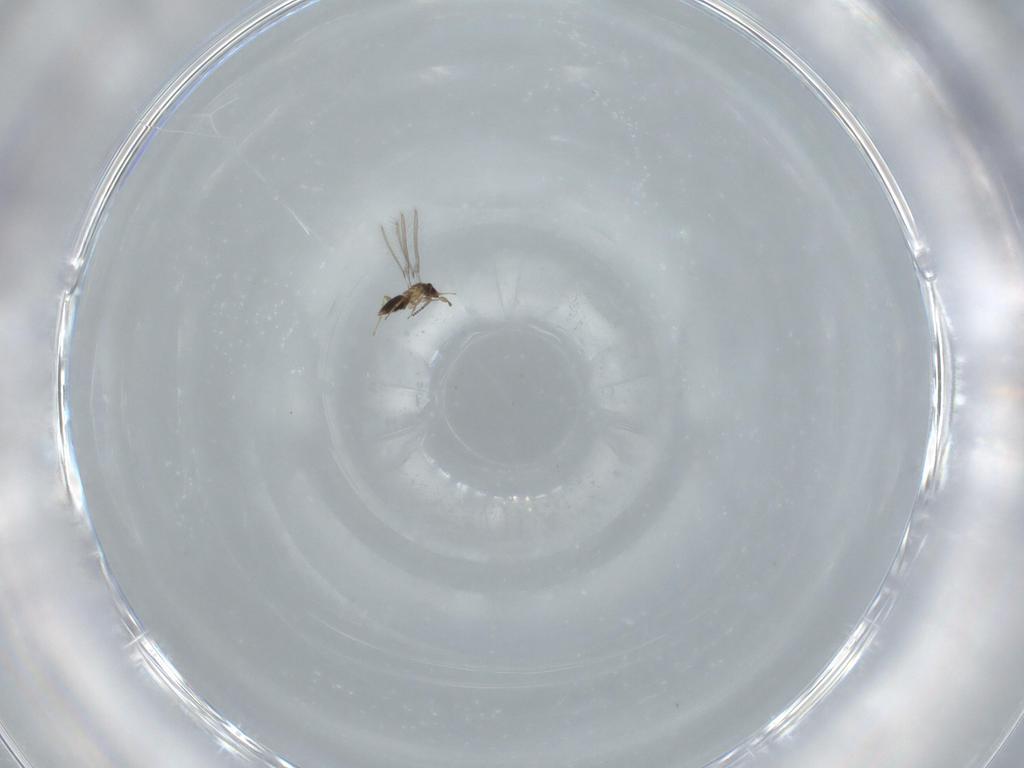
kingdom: Animalia
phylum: Arthropoda
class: Insecta
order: Hymenoptera
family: Mymaridae
